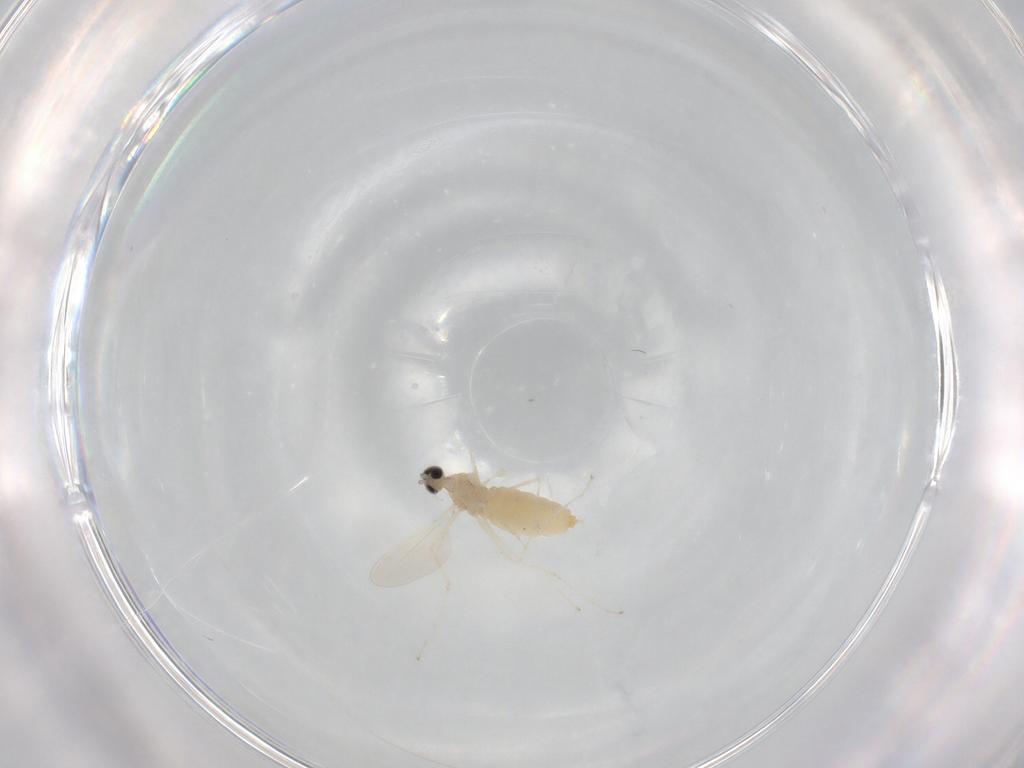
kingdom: Animalia
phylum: Arthropoda
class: Insecta
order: Diptera
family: Cecidomyiidae
